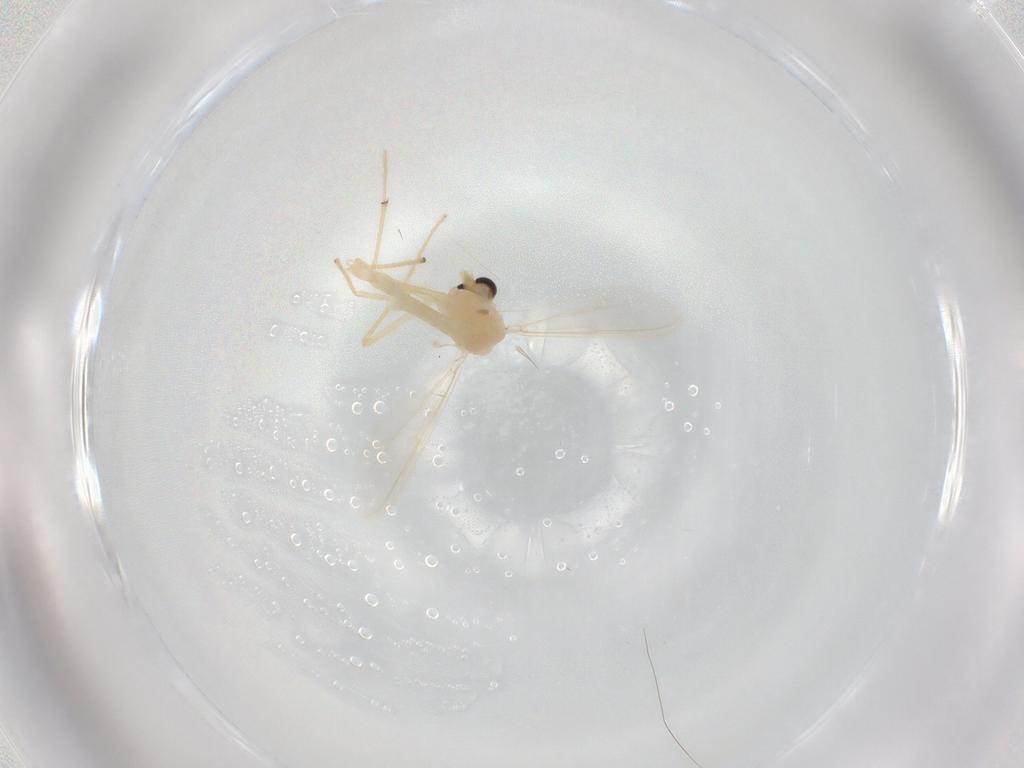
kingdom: Animalia
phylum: Arthropoda
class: Insecta
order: Diptera
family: Chironomidae
